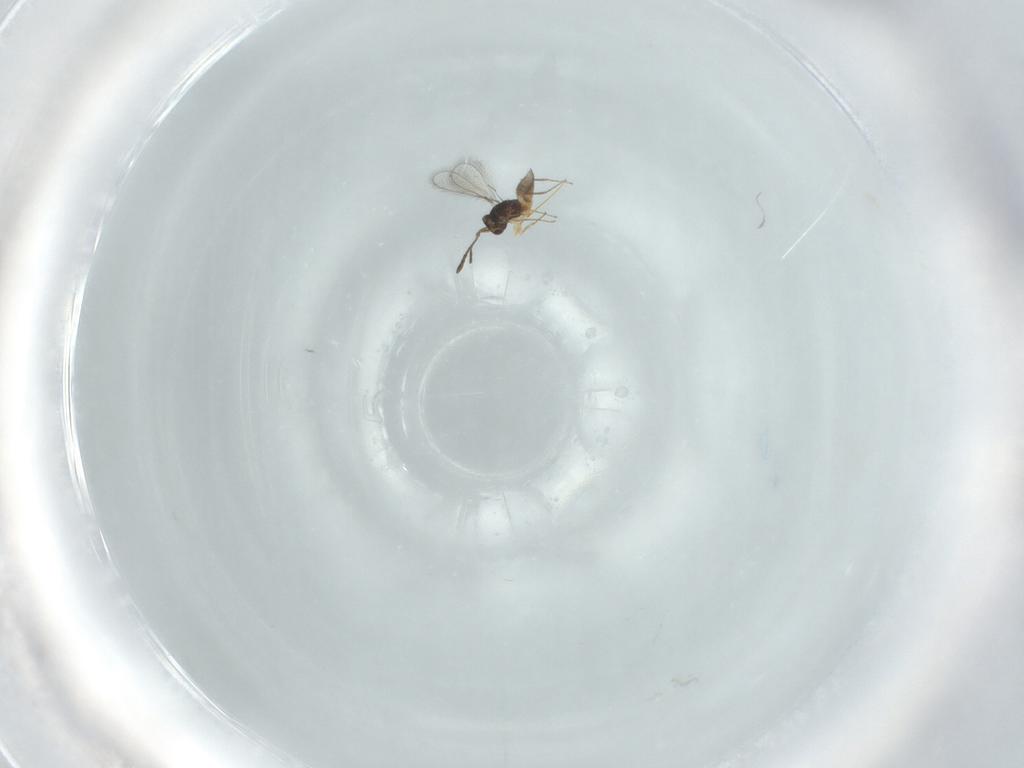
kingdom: Animalia
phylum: Arthropoda
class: Insecta
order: Hymenoptera
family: Mymaridae
